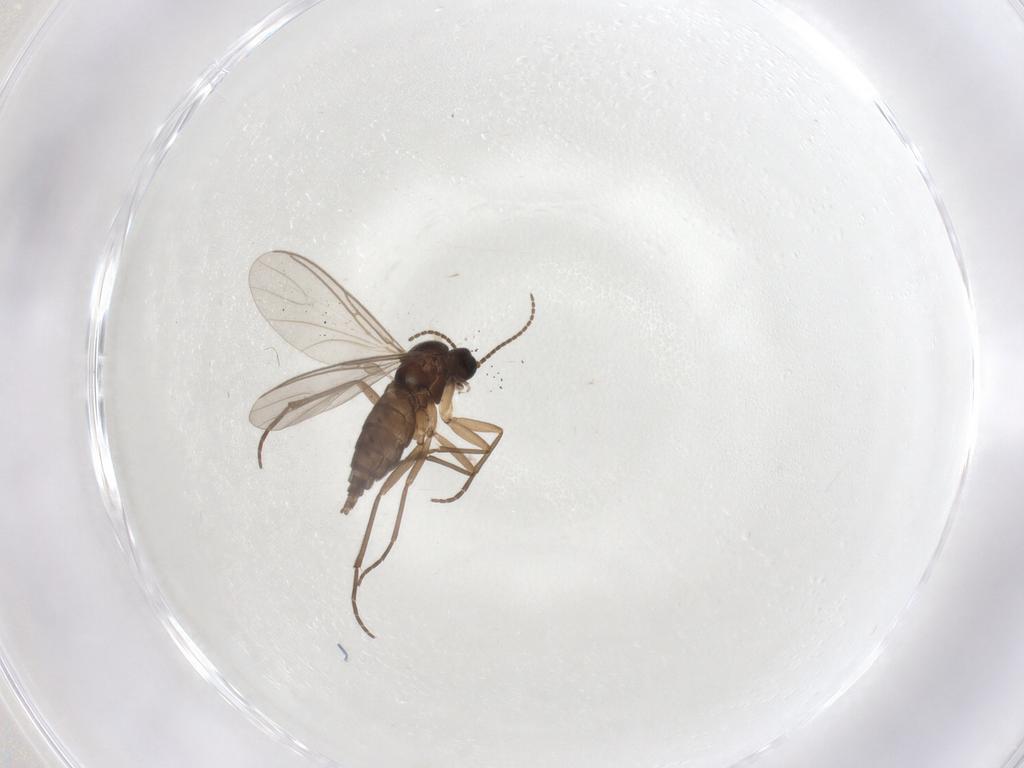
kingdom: Animalia
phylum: Arthropoda
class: Insecta
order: Diptera
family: Sciaridae
